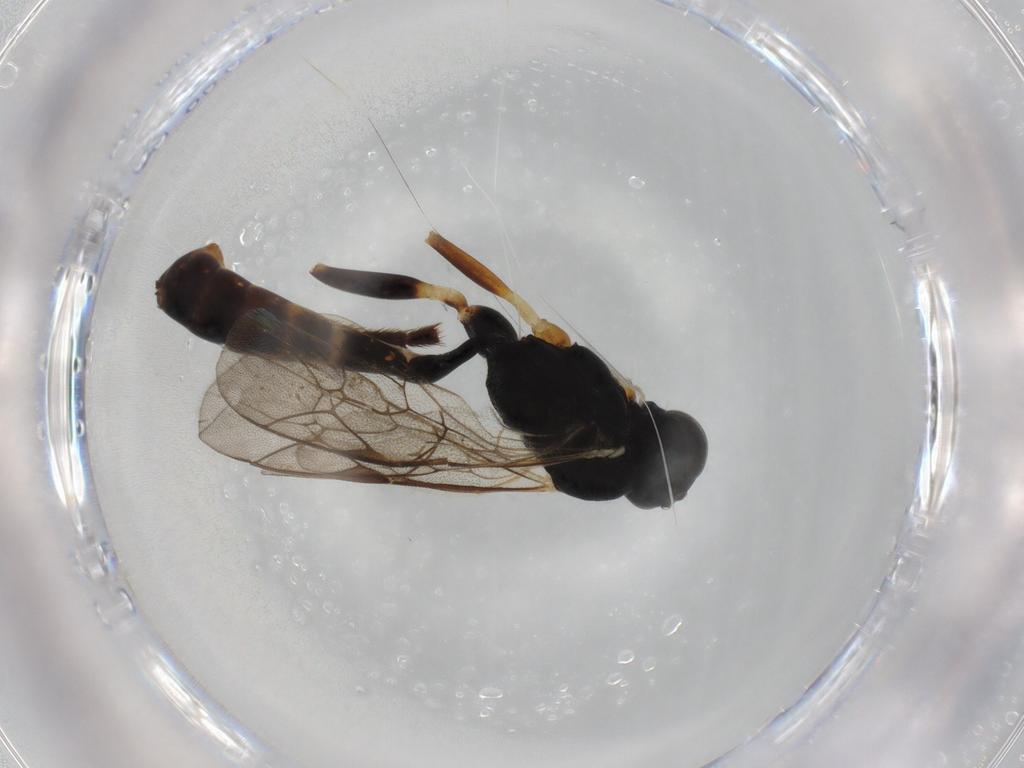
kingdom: Animalia
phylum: Arthropoda
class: Insecta
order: Hymenoptera
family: Ichneumonidae
